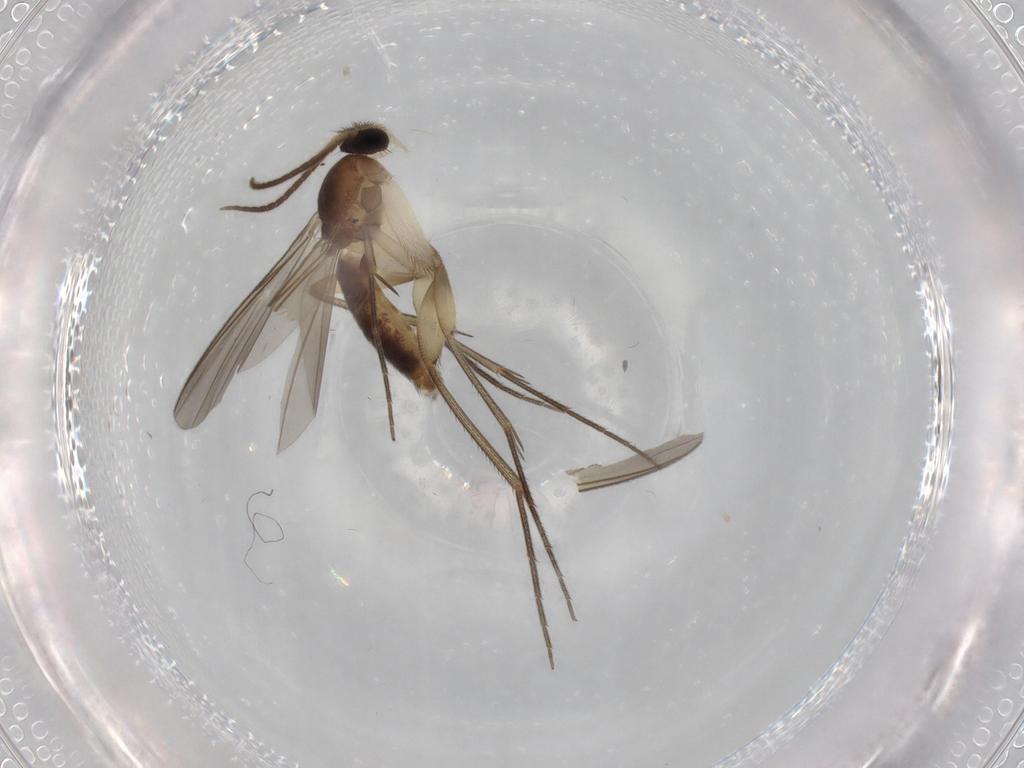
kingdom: Animalia
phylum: Arthropoda
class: Insecta
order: Diptera
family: Mycetophilidae
